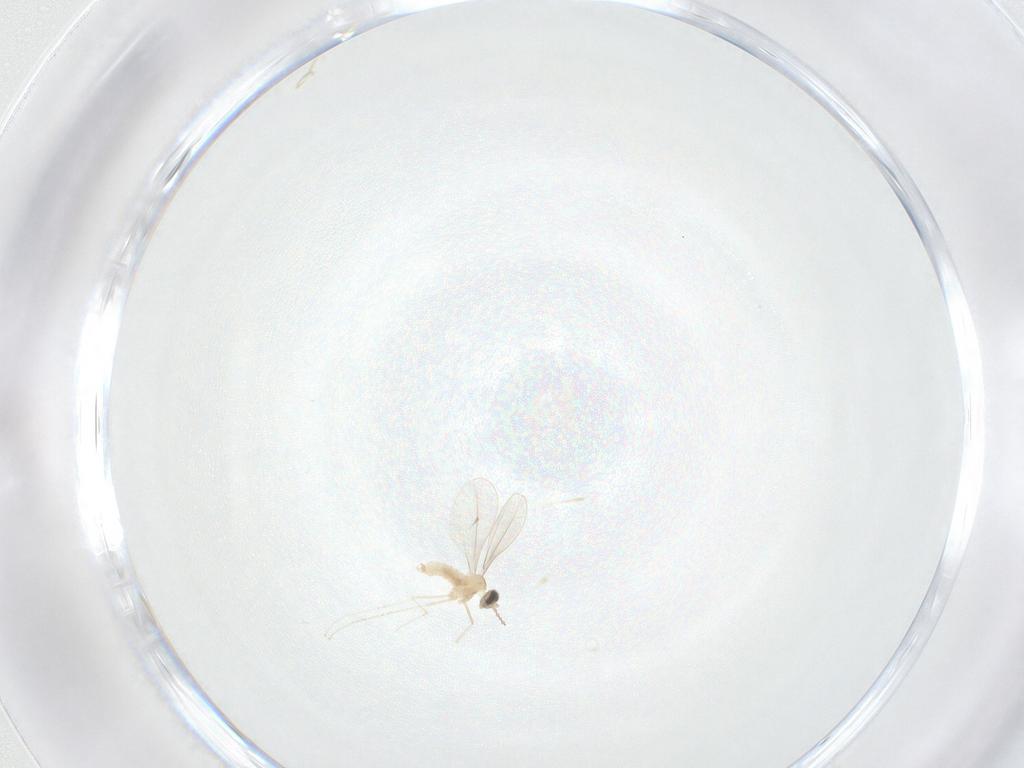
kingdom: Animalia
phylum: Arthropoda
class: Insecta
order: Diptera
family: Cecidomyiidae
